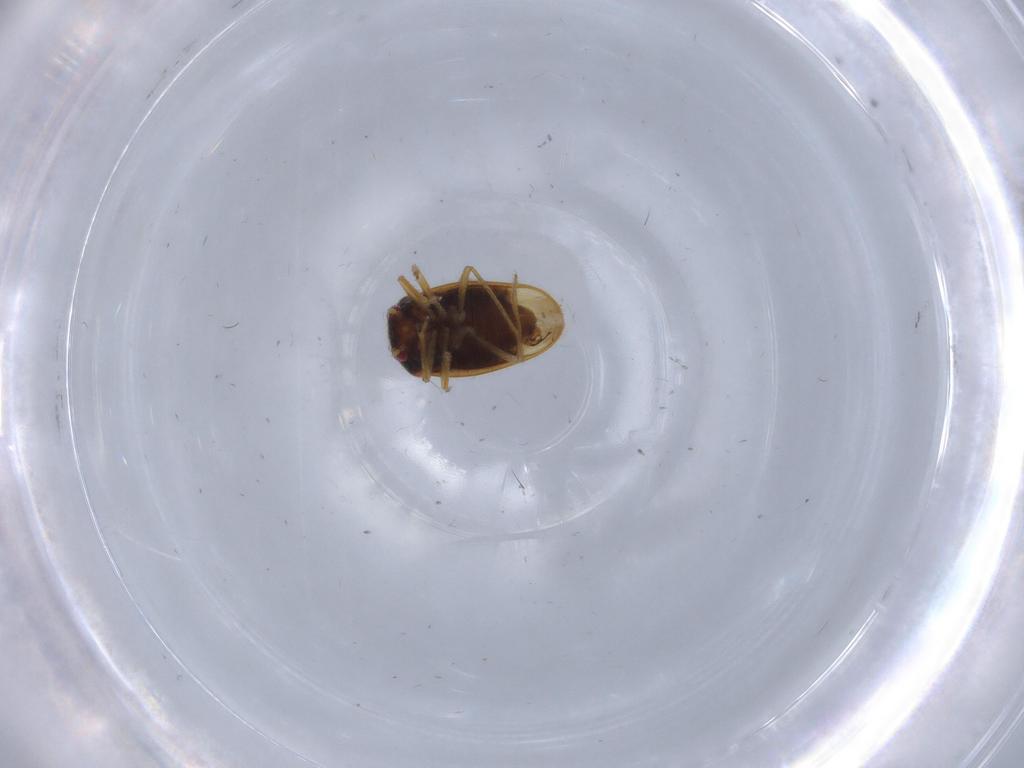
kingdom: Animalia
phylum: Arthropoda
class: Insecta
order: Hemiptera
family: Schizopteridae
